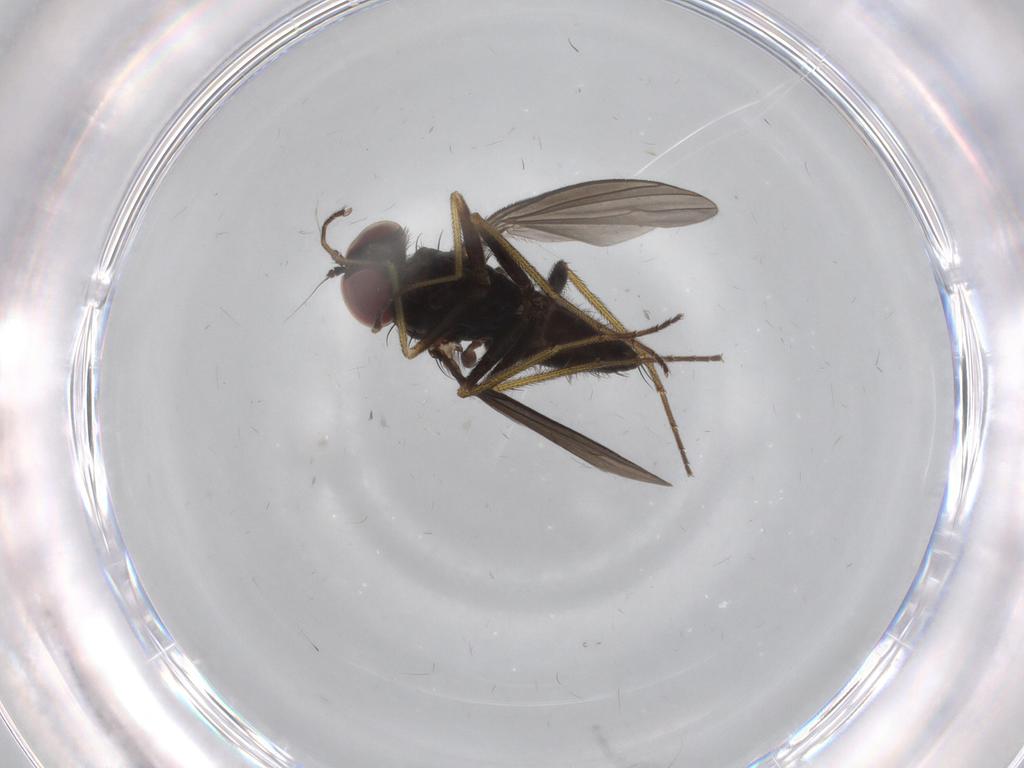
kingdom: Animalia
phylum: Arthropoda
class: Insecta
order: Diptera
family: Dolichopodidae
